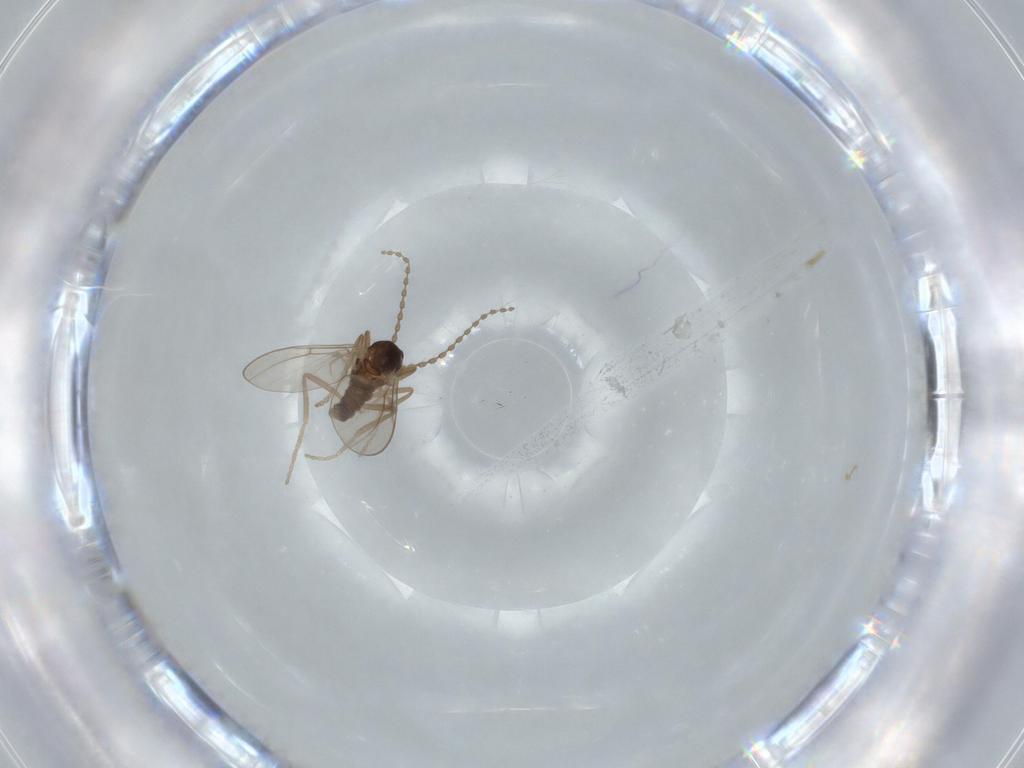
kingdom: Animalia
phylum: Arthropoda
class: Insecta
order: Diptera
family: Cecidomyiidae
